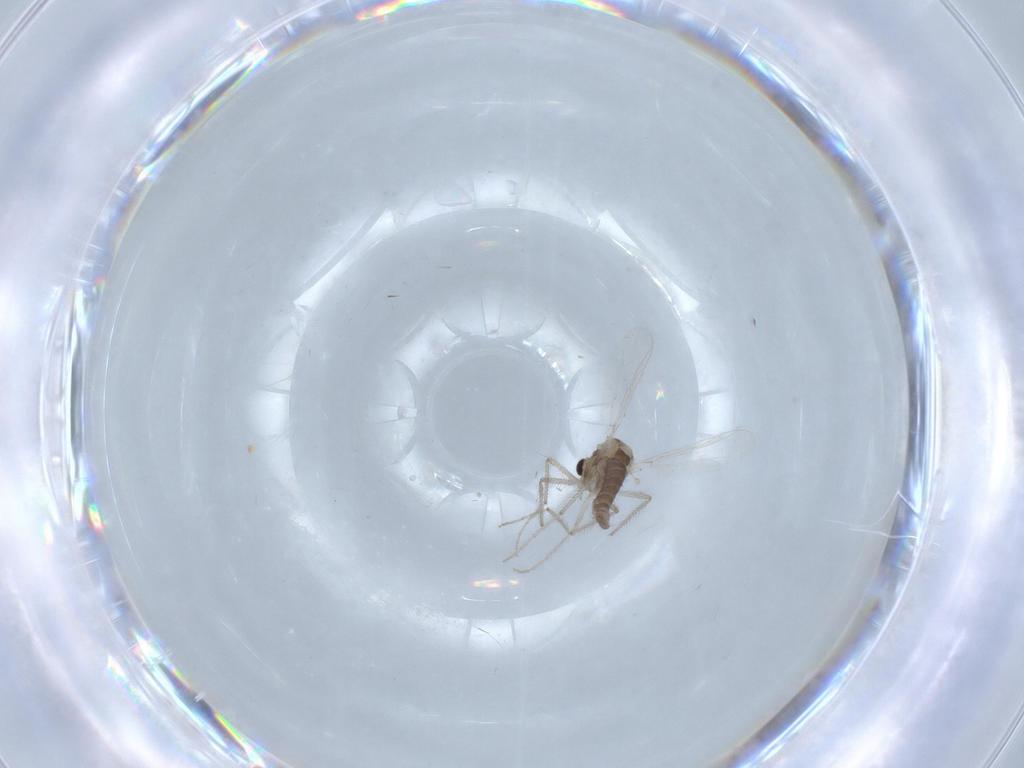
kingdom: Animalia
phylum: Arthropoda
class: Insecta
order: Diptera
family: Chironomidae
